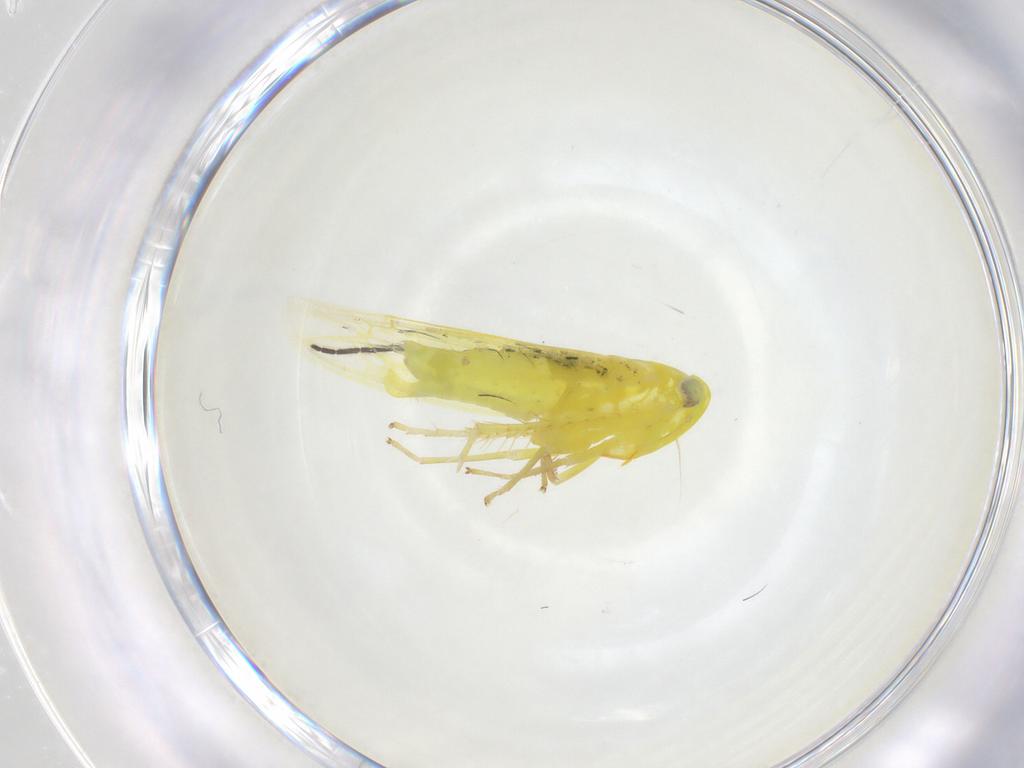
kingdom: Animalia
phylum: Arthropoda
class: Insecta
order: Hemiptera
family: Cicadellidae
